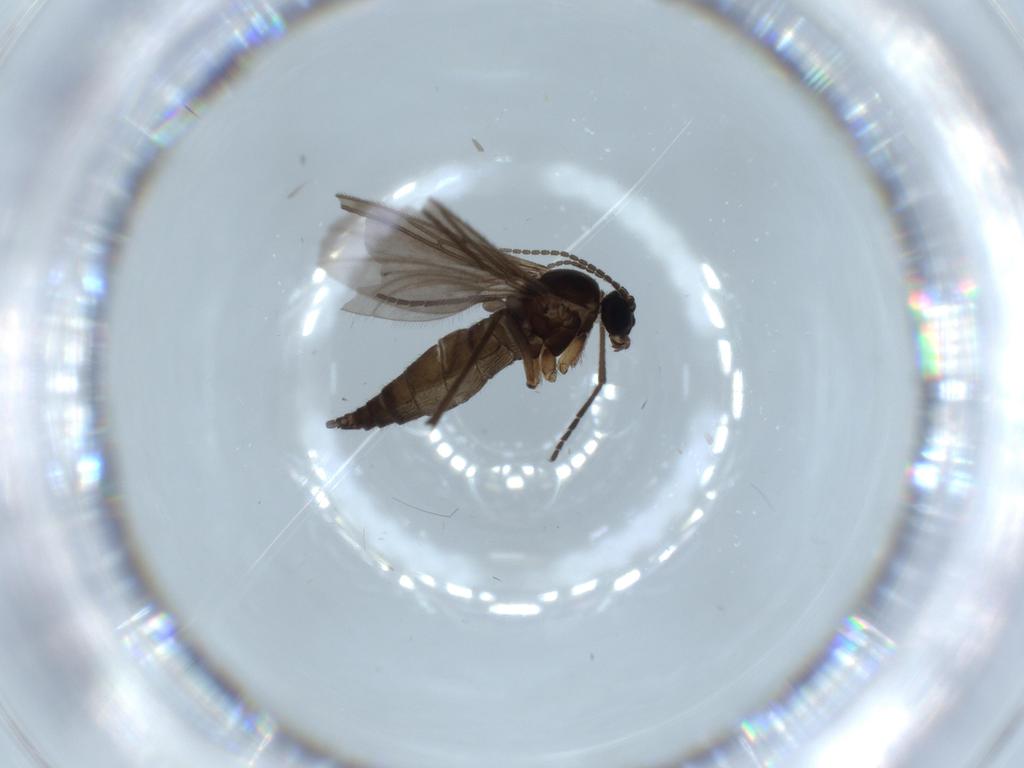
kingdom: Animalia
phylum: Arthropoda
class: Insecta
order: Diptera
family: Sciaridae
